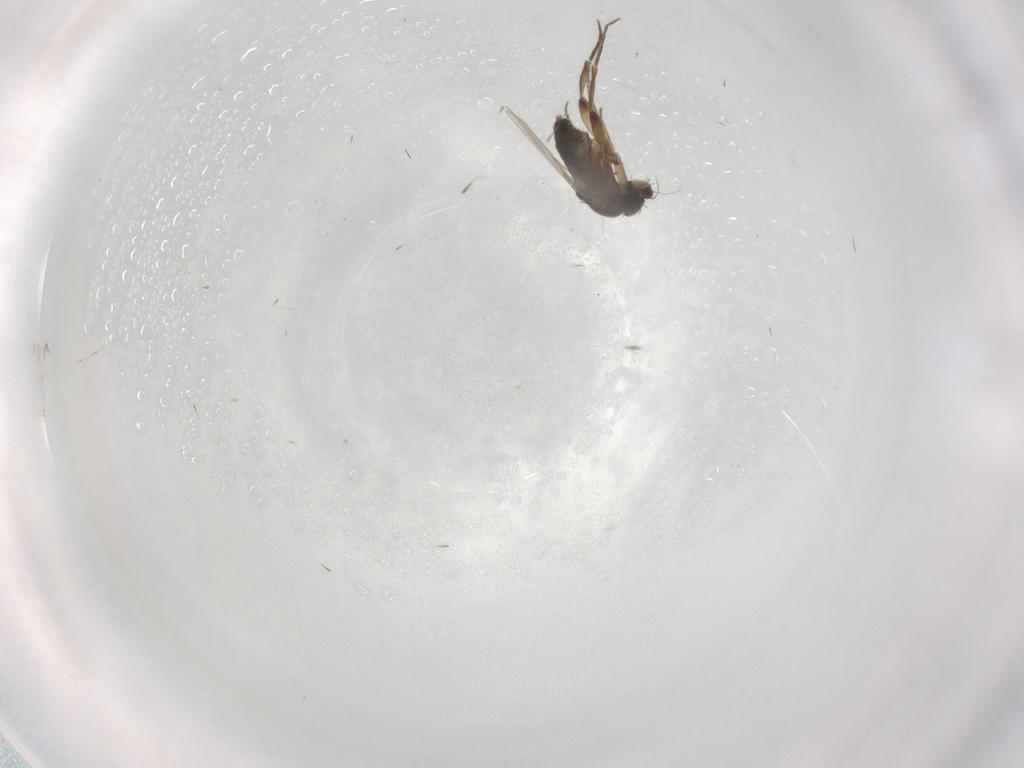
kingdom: Animalia
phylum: Arthropoda
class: Insecta
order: Diptera
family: Phoridae
